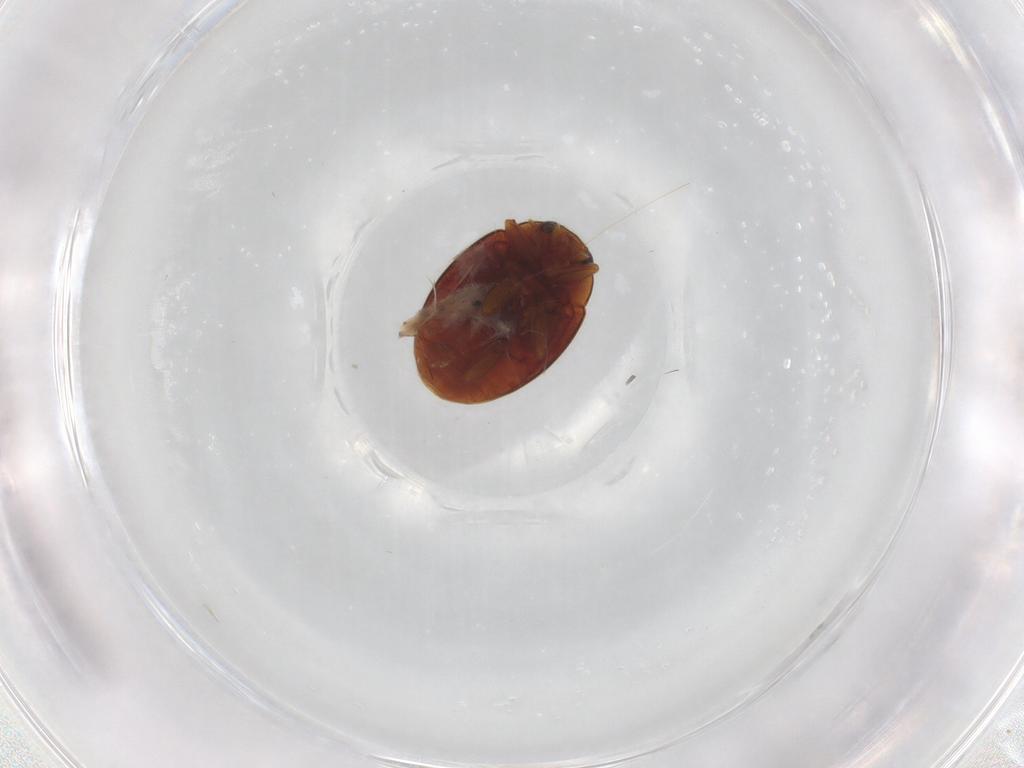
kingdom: Animalia
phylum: Arthropoda
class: Insecta
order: Coleoptera
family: Coccinellidae
